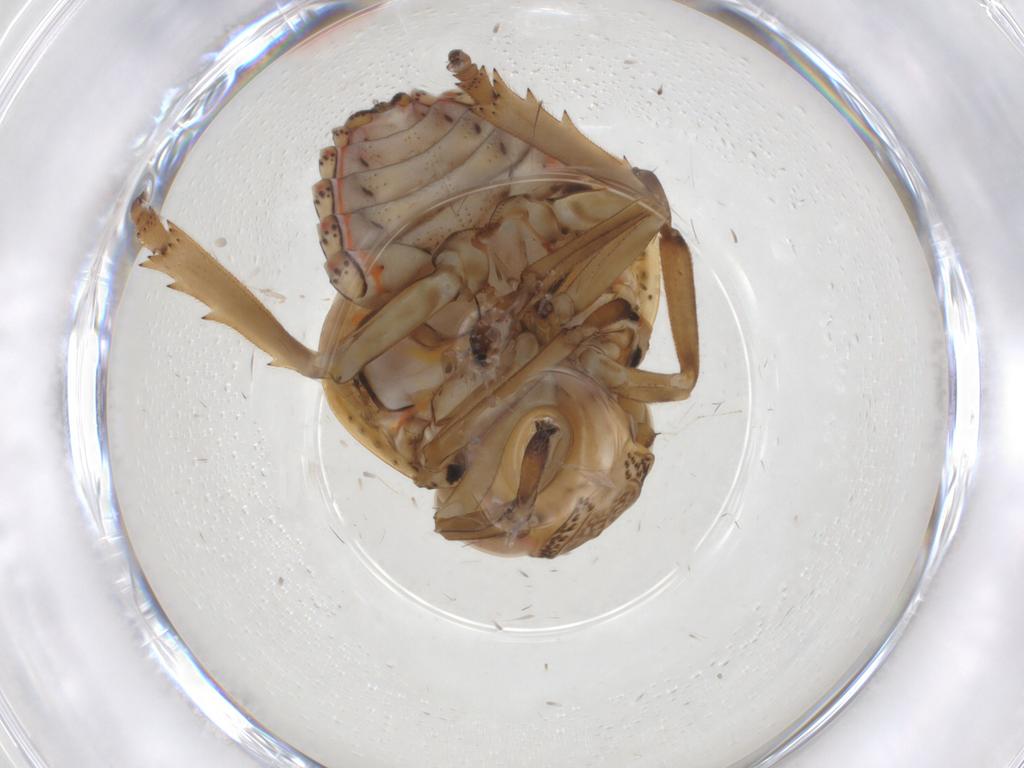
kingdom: Animalia
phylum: Arthropoda
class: Insecta
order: Hemiptera
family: Issidae
